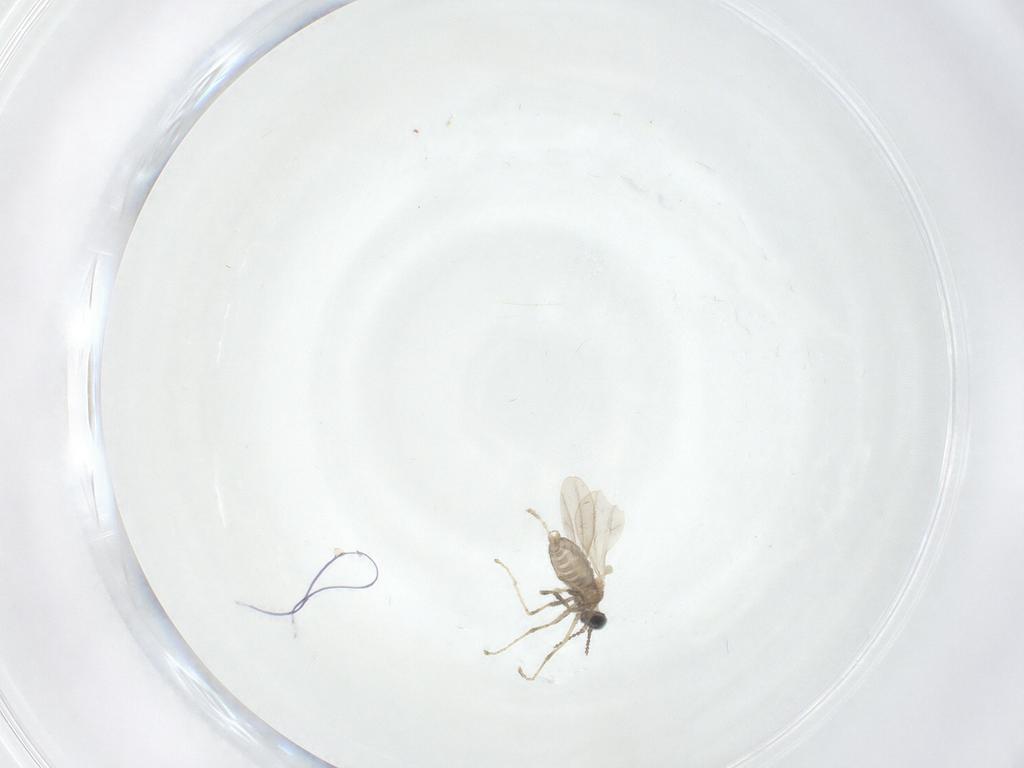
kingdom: Animalia
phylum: Arthropoda
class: Insecta
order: Diptera
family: Cecidomyiidae
